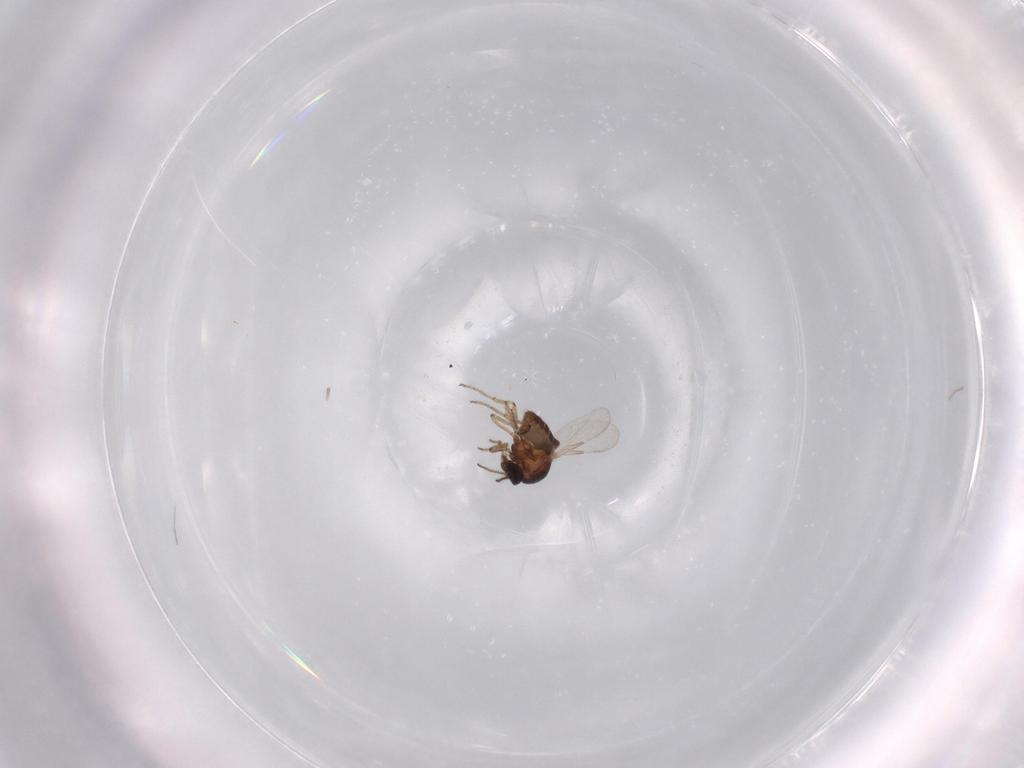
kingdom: Animalia
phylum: Arthropoda
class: Insecta
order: Diptera
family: Ceratopogonidae
